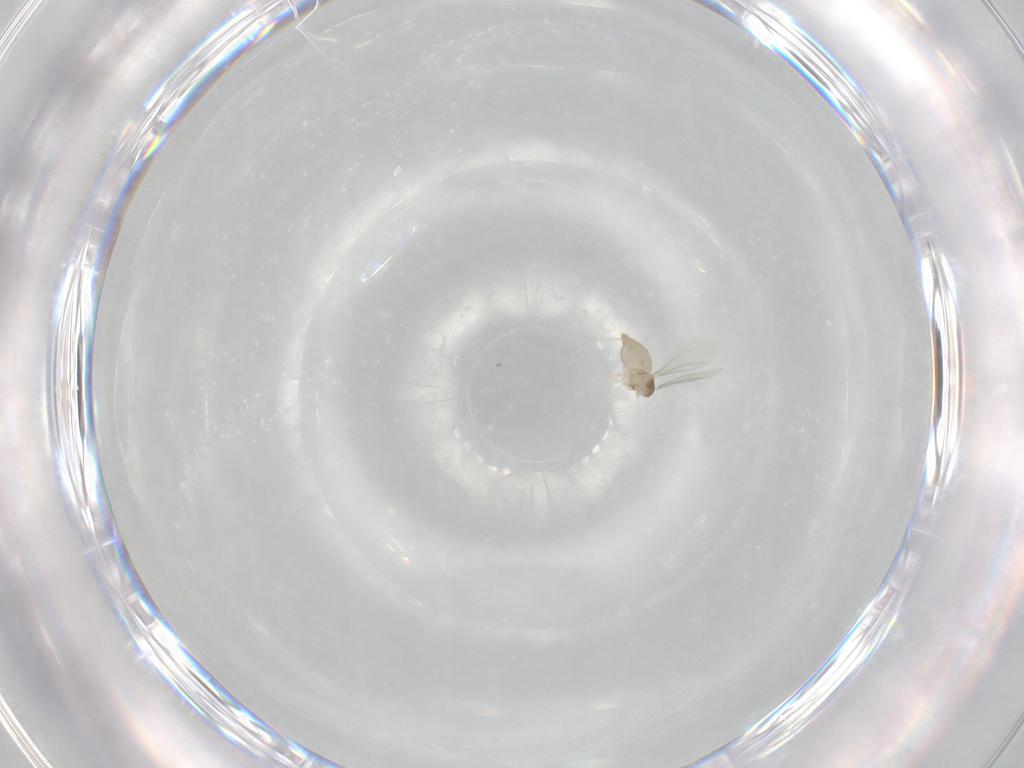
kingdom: Animalia
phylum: Arthropoda
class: Insecta
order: Diptera
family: Cecidomyiidae
